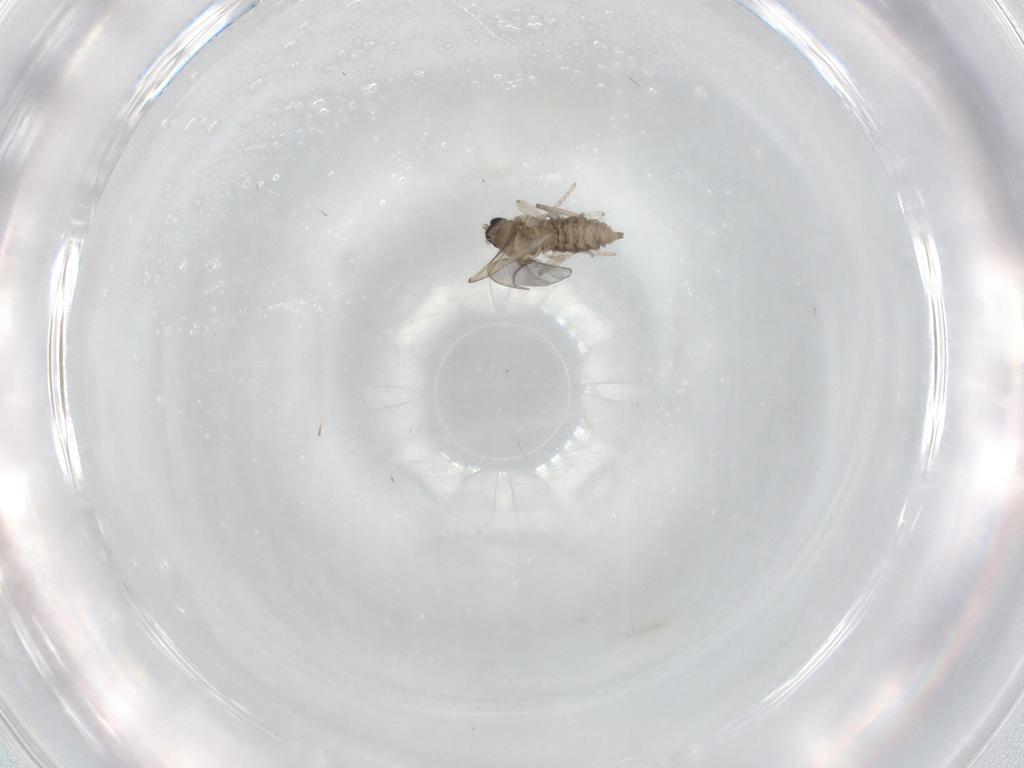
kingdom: Animalia
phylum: Arthropoda
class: Insecta
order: Diptera
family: Cecidomyiidae
